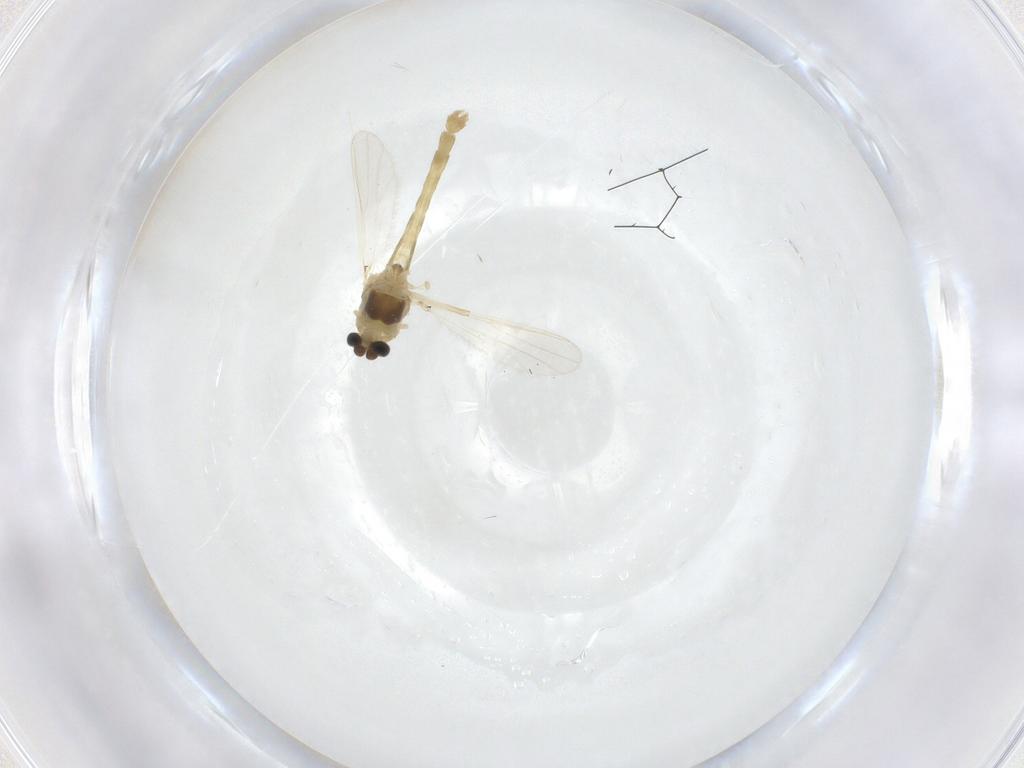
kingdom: Animalia
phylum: Arthropoda
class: Insecta
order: Diptera
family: Chironomidae
